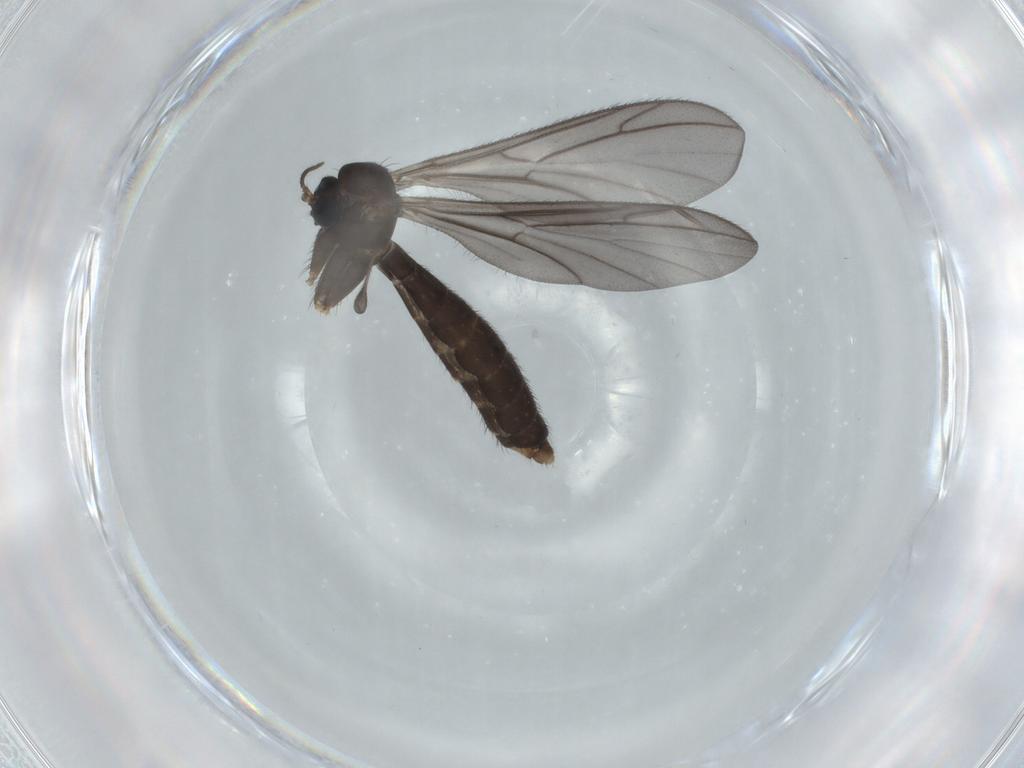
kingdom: Animalia
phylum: Arthropoda
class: Insecta
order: Diptera
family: Keroplatidae
